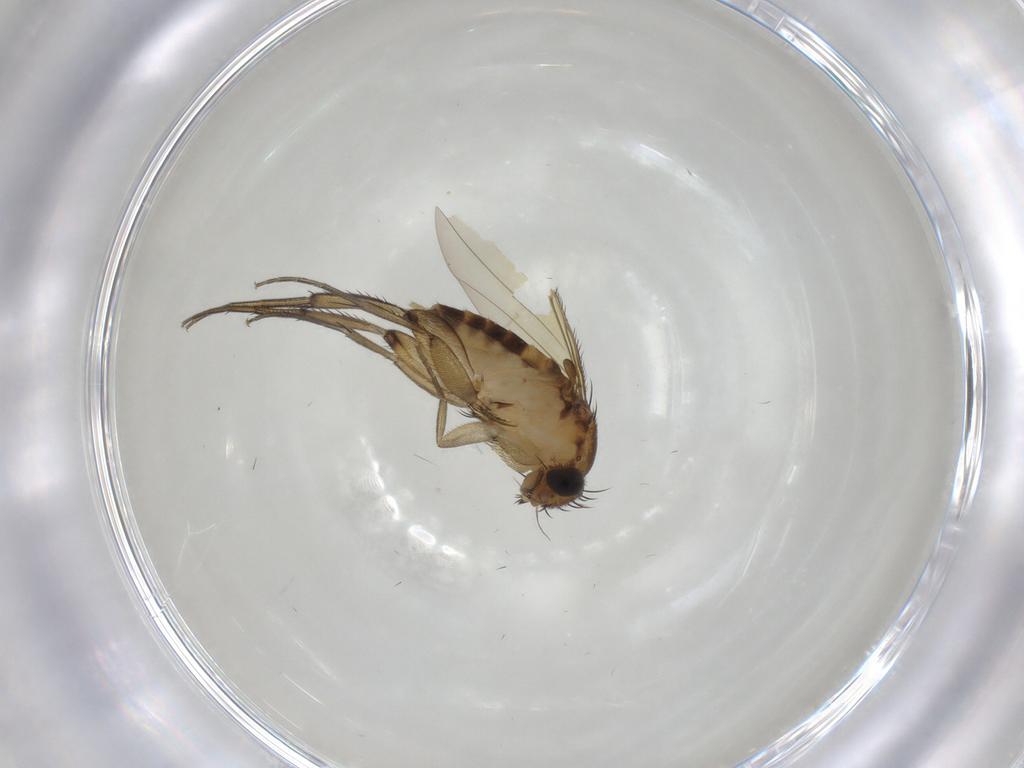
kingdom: Animalia
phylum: Arthropoda
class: Insecta
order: Diptera
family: Phoridae
